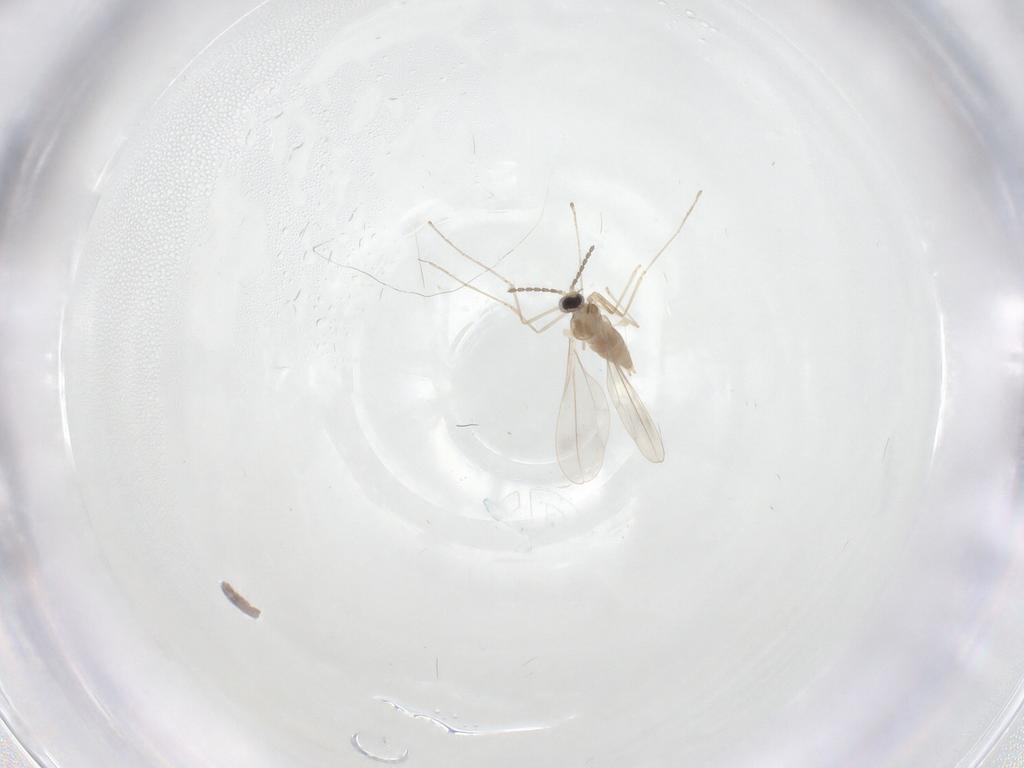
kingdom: Animalia
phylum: Arthropoda
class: Insecta
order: Diptera
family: Cecidomyiidae
